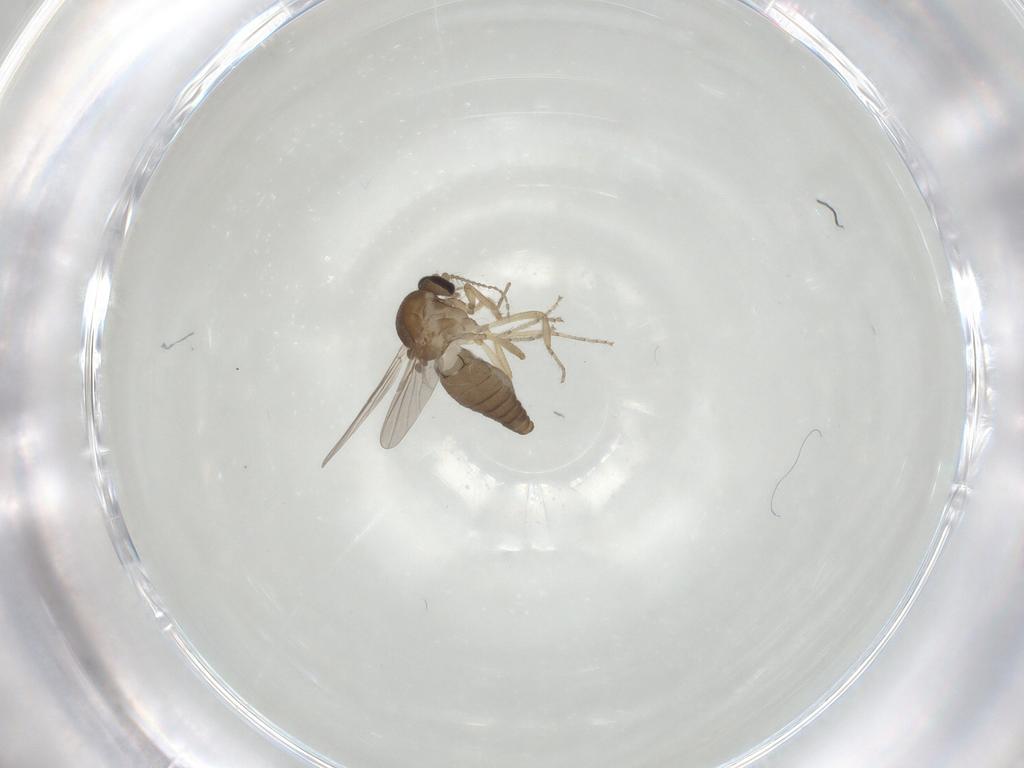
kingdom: Animalia
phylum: Arthropoda
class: Insecta
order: Diptera
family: Ceratopogonidae
